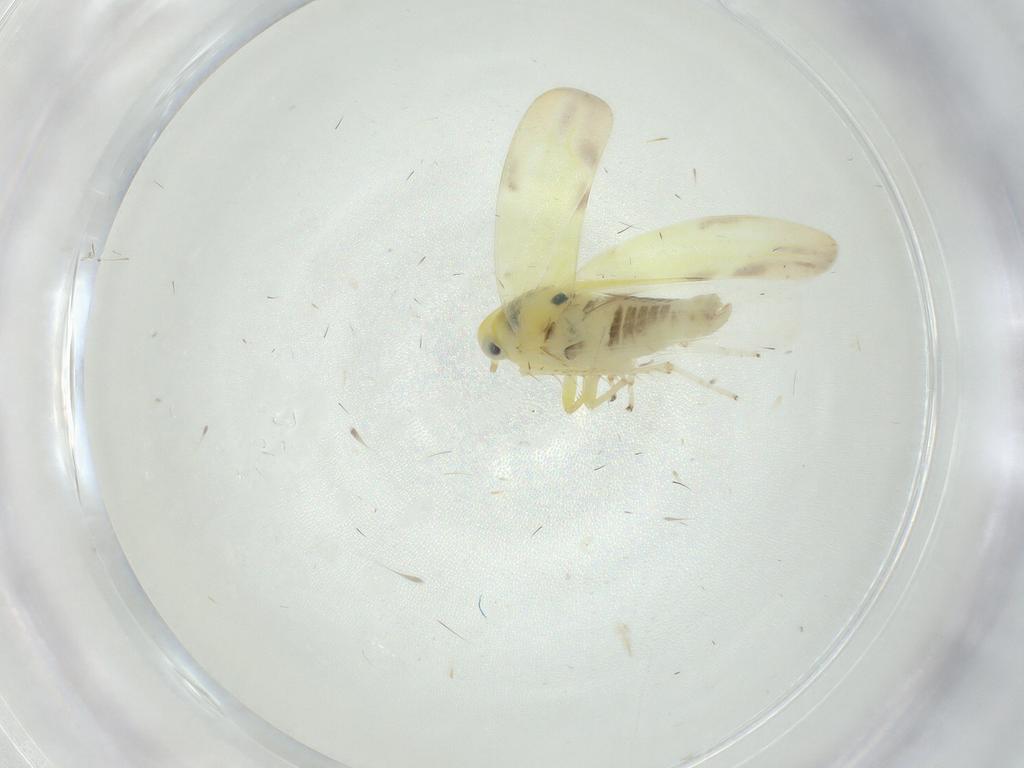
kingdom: Animalia
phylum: Arthropoda
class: Insecta
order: Hemiptera
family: Cicadellidae
